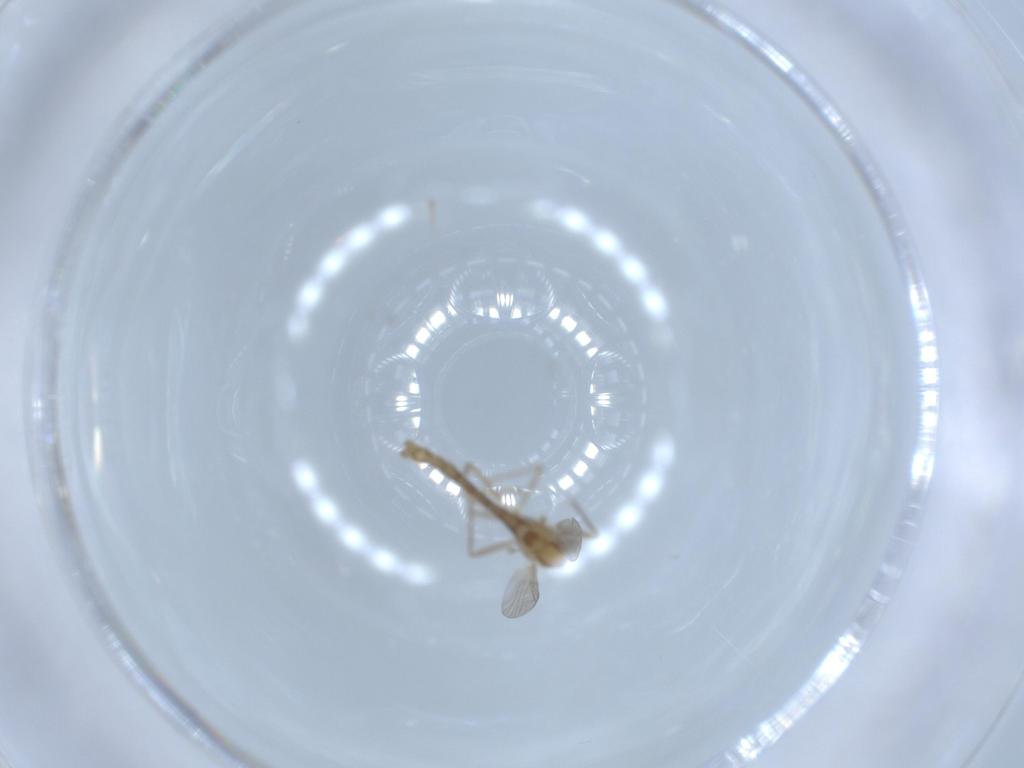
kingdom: Animalia
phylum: Arthropoda
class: Insecta
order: Diptera
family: Chironomidae
